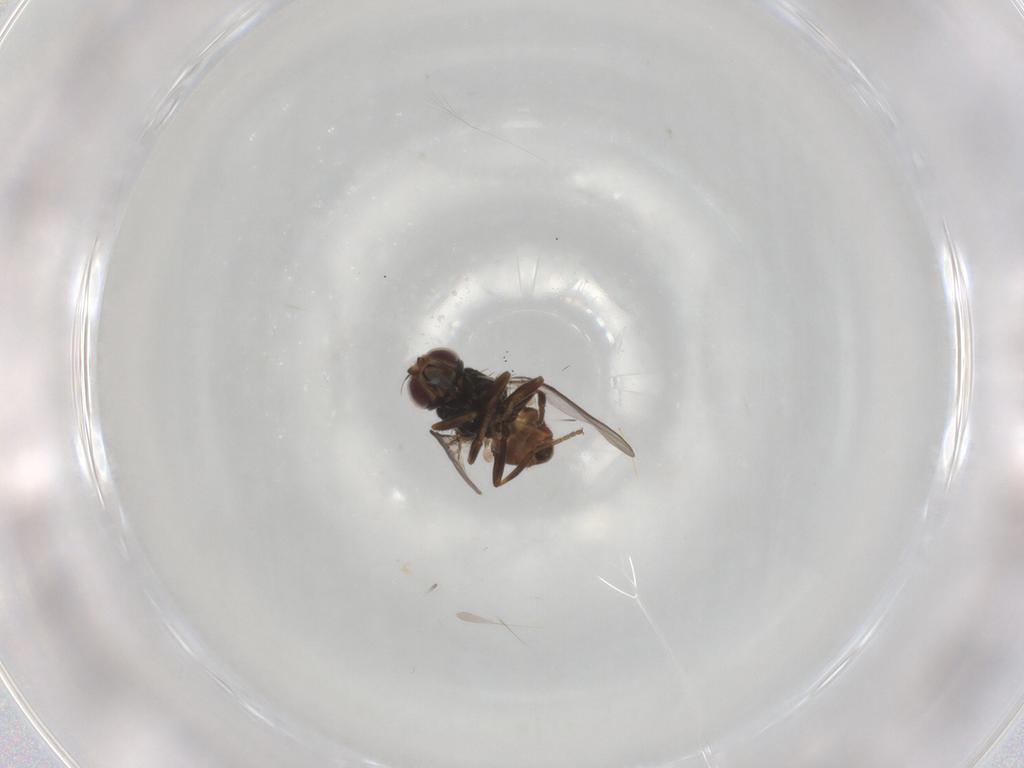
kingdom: Animalia
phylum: Arthropoda
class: Insecta
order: Diptera
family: Chloropidae
